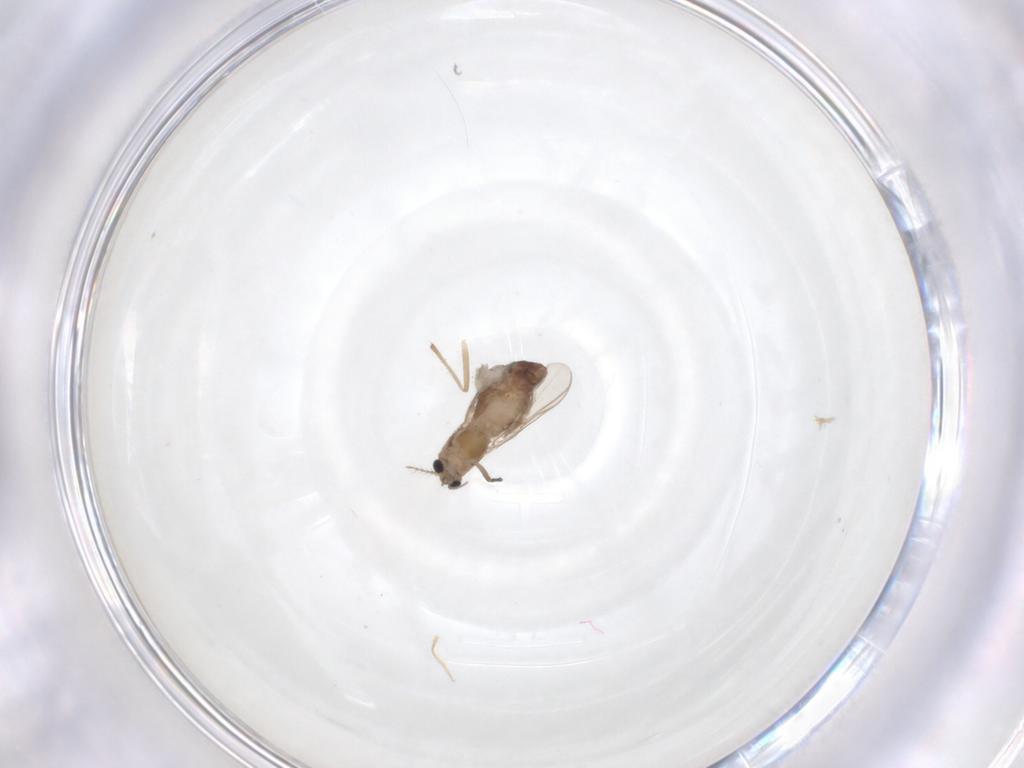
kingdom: Animalia
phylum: Arthropoda
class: Insecta
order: Diptera
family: Chironomidae
